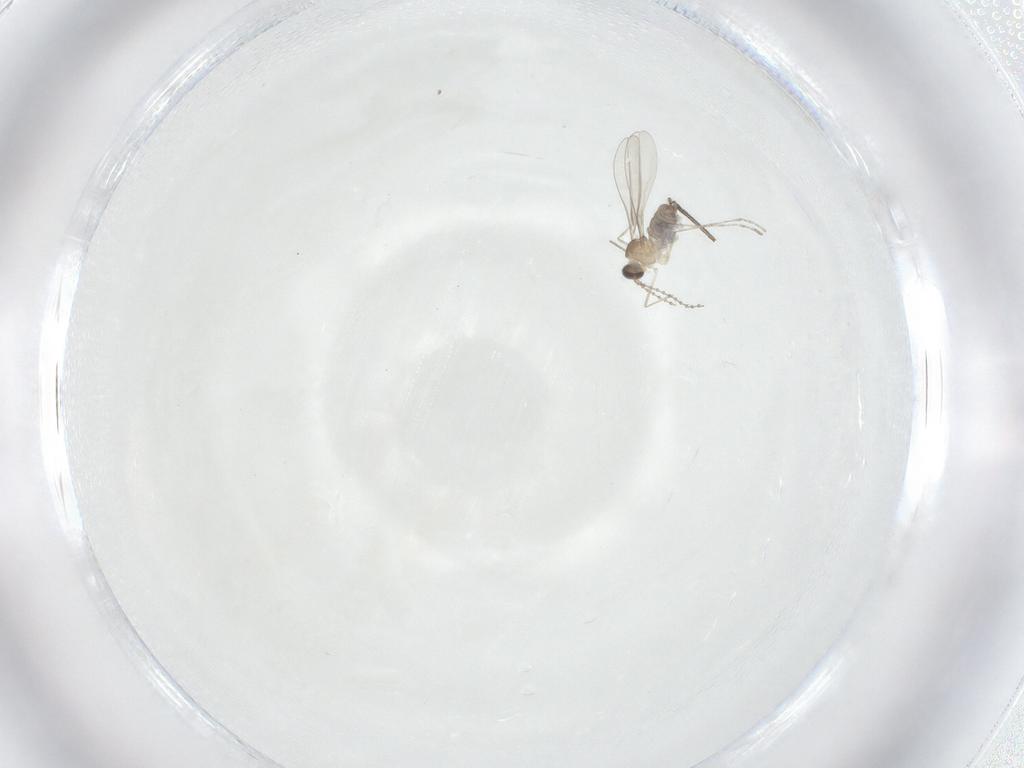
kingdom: Animalia
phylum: Arthropoda
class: Insecta
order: Diptera
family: Cecidomyiidae
